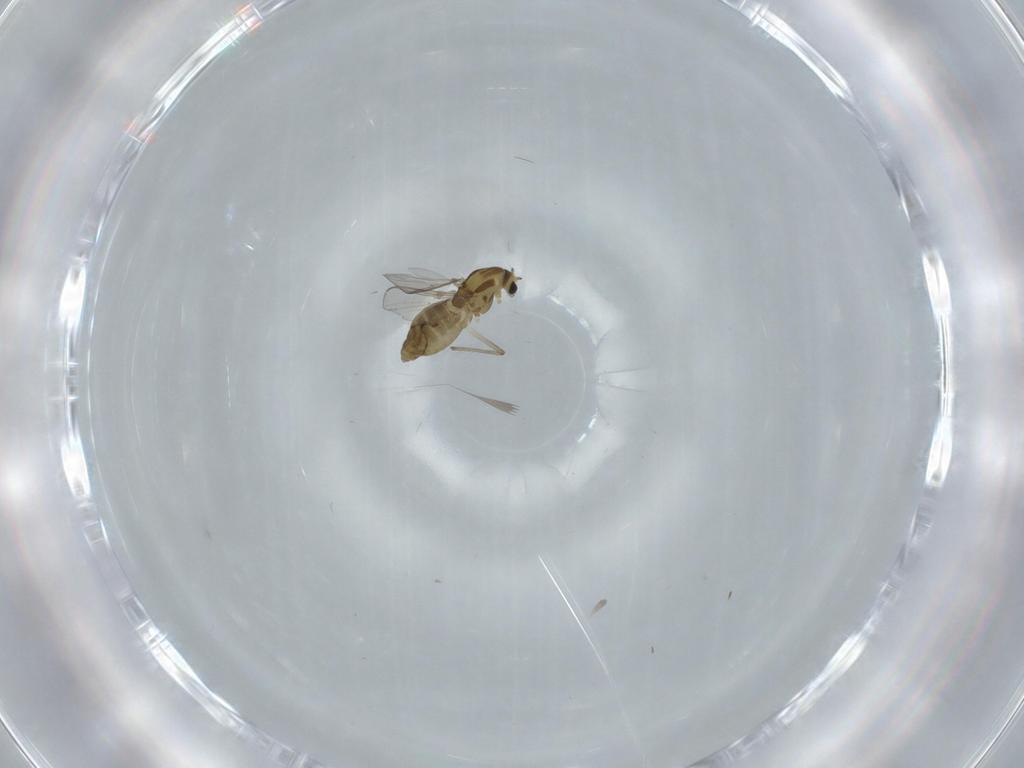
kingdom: Animalia
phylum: Arthropoda
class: Insecta
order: Diptera
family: Chironomidae
